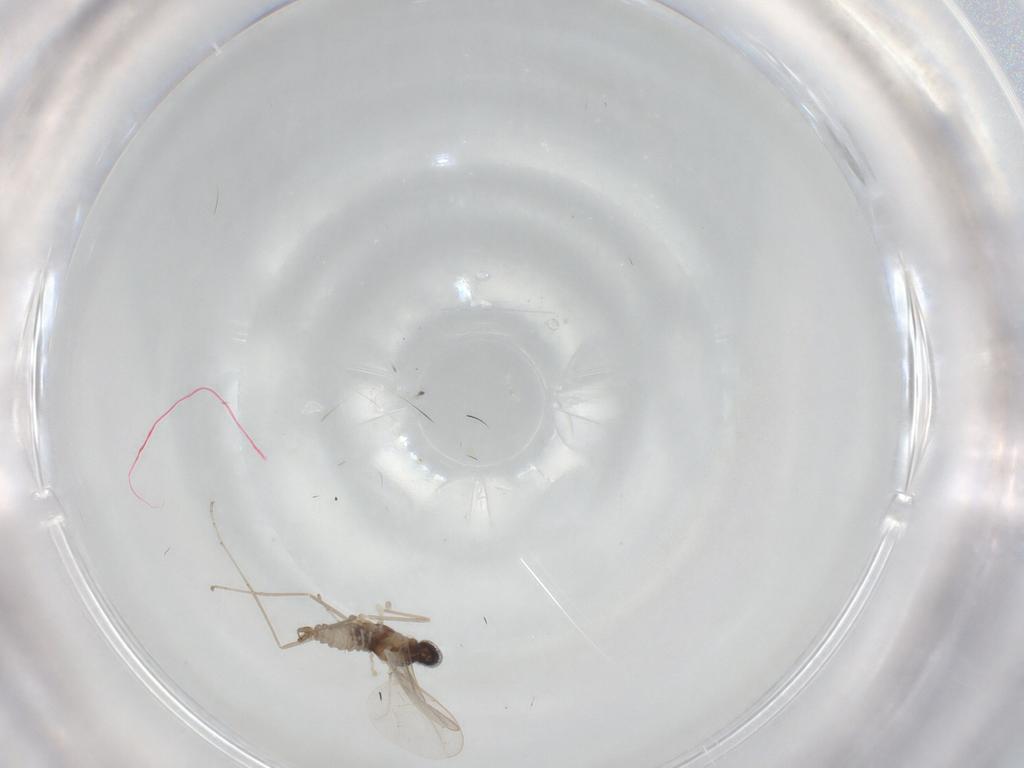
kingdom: Animalia
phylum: Arthropoda
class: Insecta
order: Diptera
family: Cecidomyiidae
